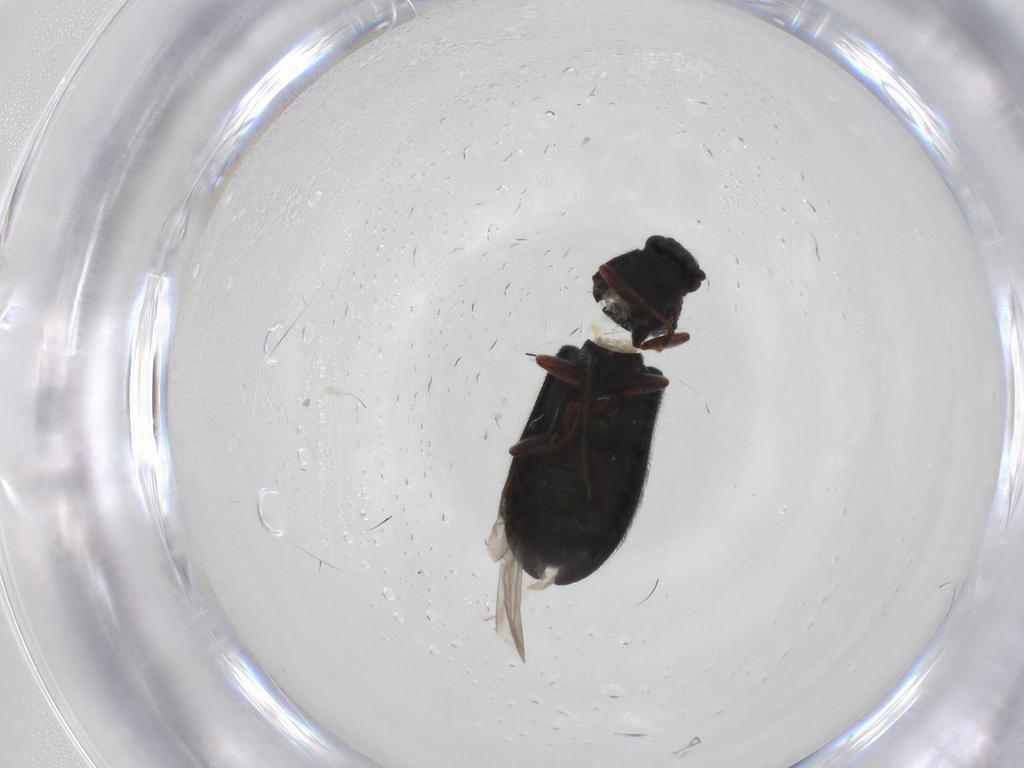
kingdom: Animalia
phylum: Arthropoda
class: Insecta
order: Coleoptera
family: Melyridae
